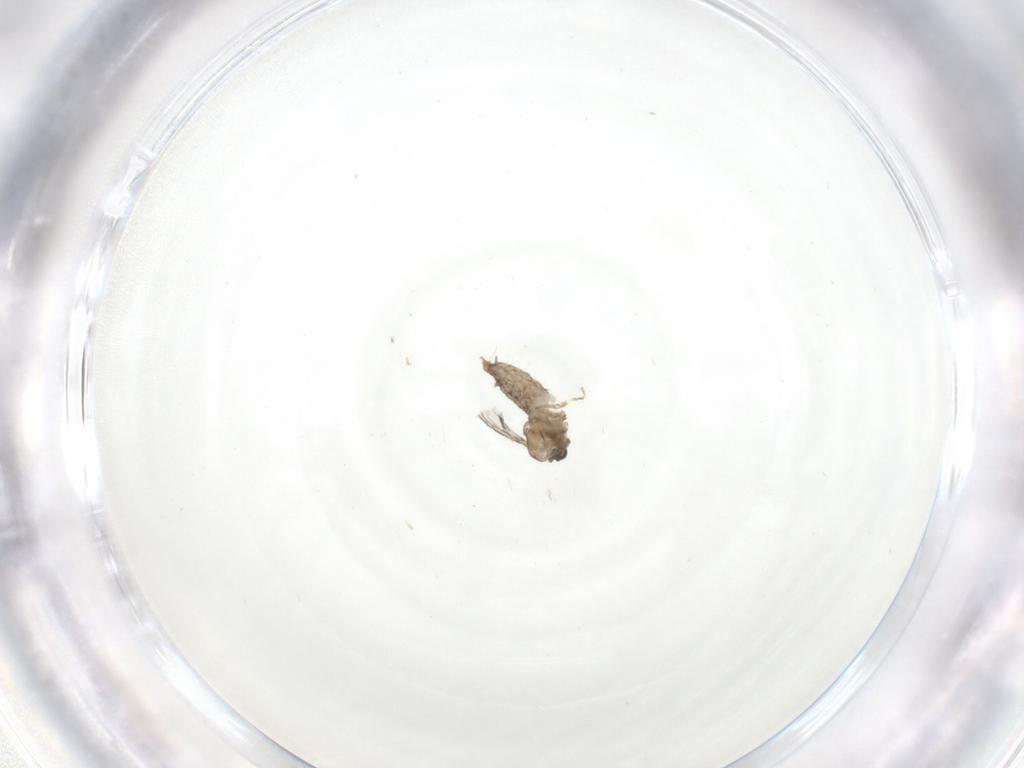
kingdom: Animalia
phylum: Arthropoda
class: Insecta
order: Diptera
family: Cecidomyiidae
